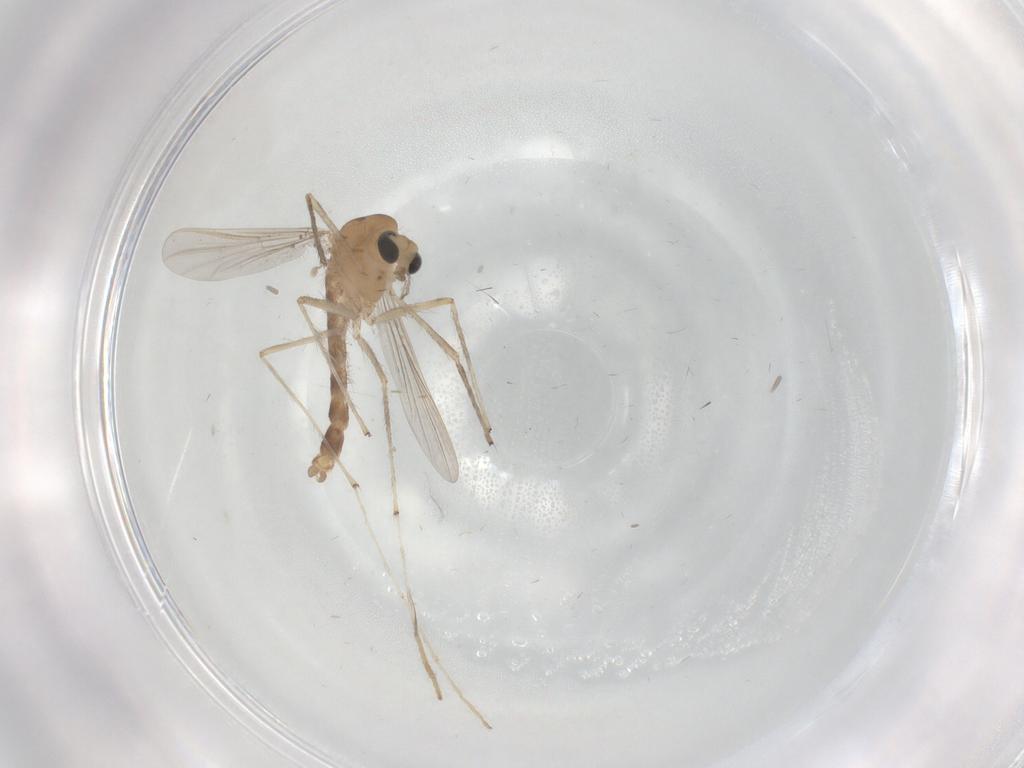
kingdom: Animalia
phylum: Arthropoda
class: Insecta
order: Diptera
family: Chironomidae
